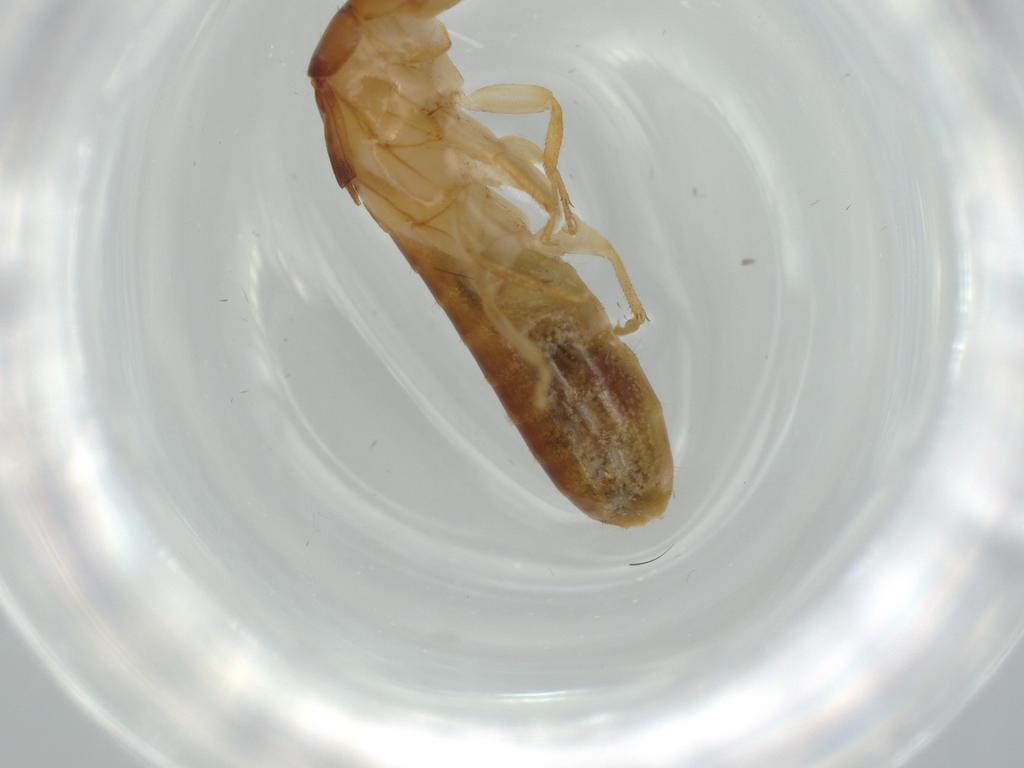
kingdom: Animalia
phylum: Arthropoda
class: Insecta
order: Blattodea
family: Kalotermitidae
